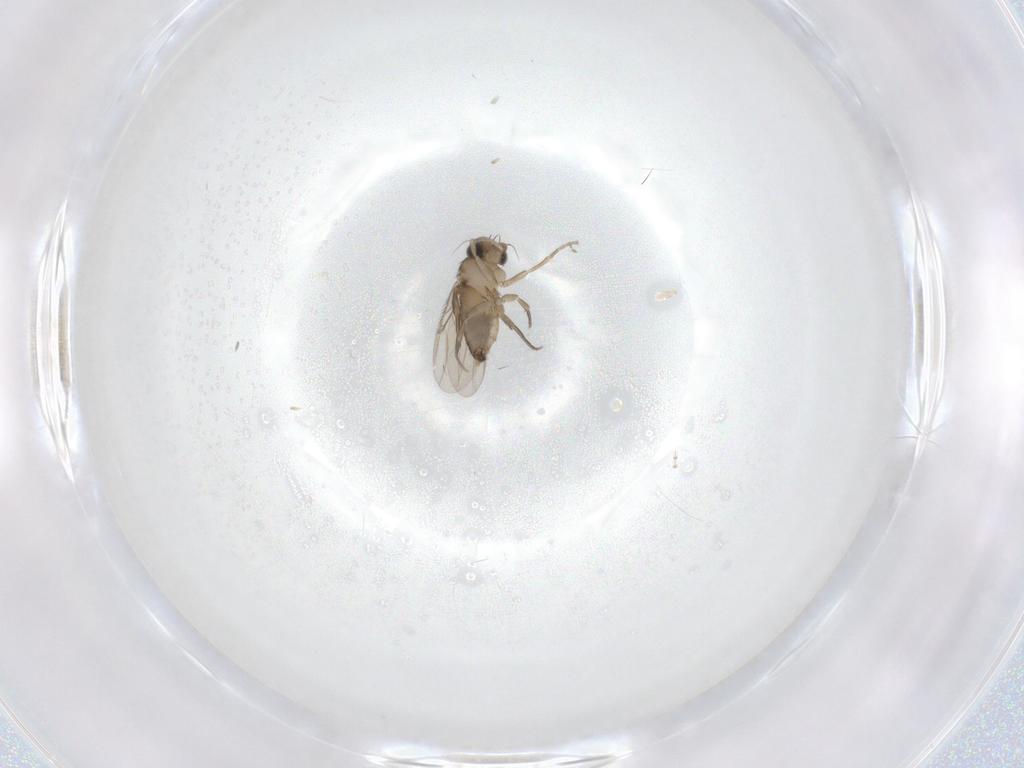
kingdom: Animalia
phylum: Arthropoda
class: Insecta
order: Diptera
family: Phoridae
